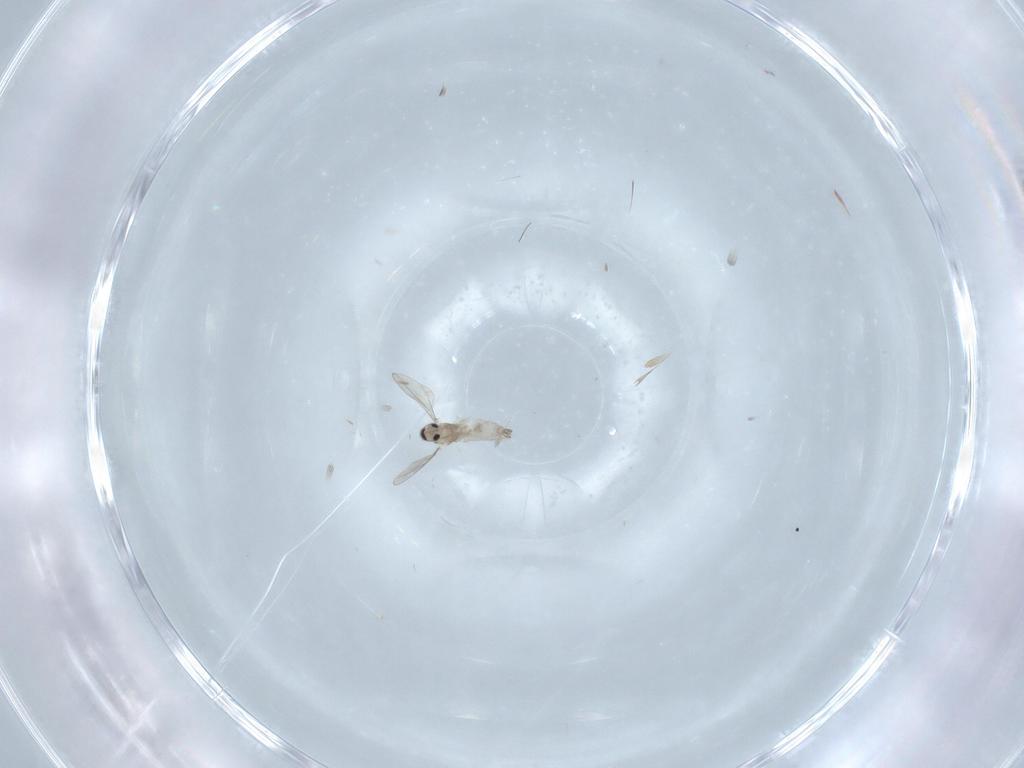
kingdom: Animalia
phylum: Arthropoda
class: Insecta
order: Diptera
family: Cecidomyiidae
